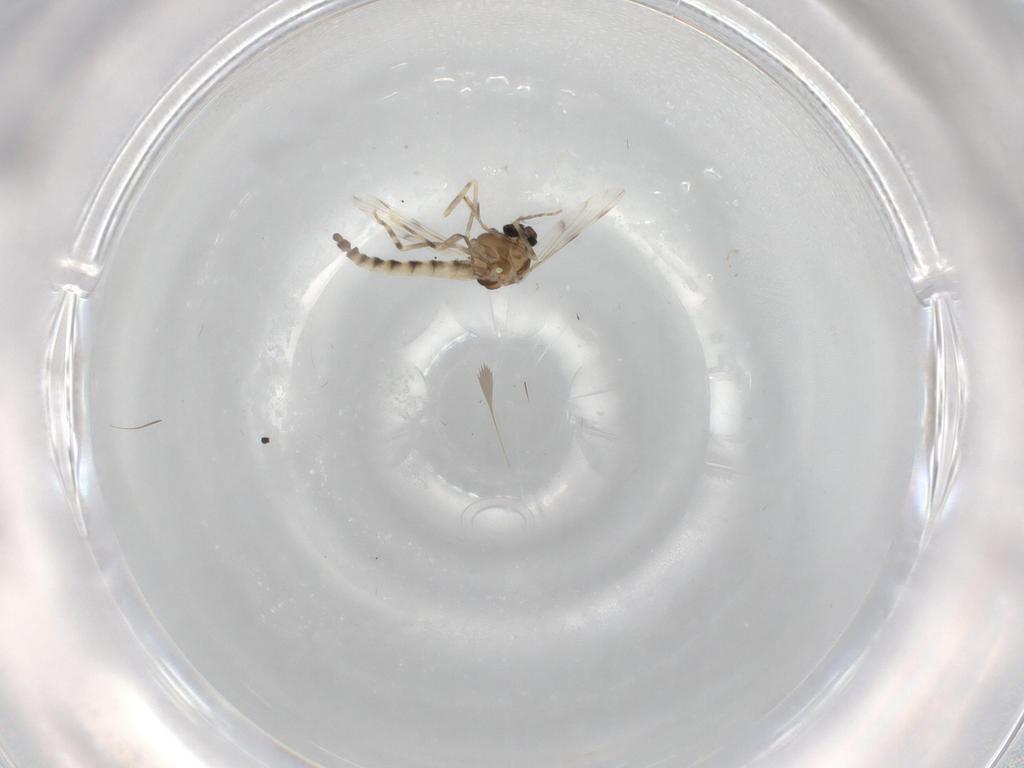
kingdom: Animalia
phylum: Arthropoda
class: Insecta
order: Diptera
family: Ceratopogonidae
